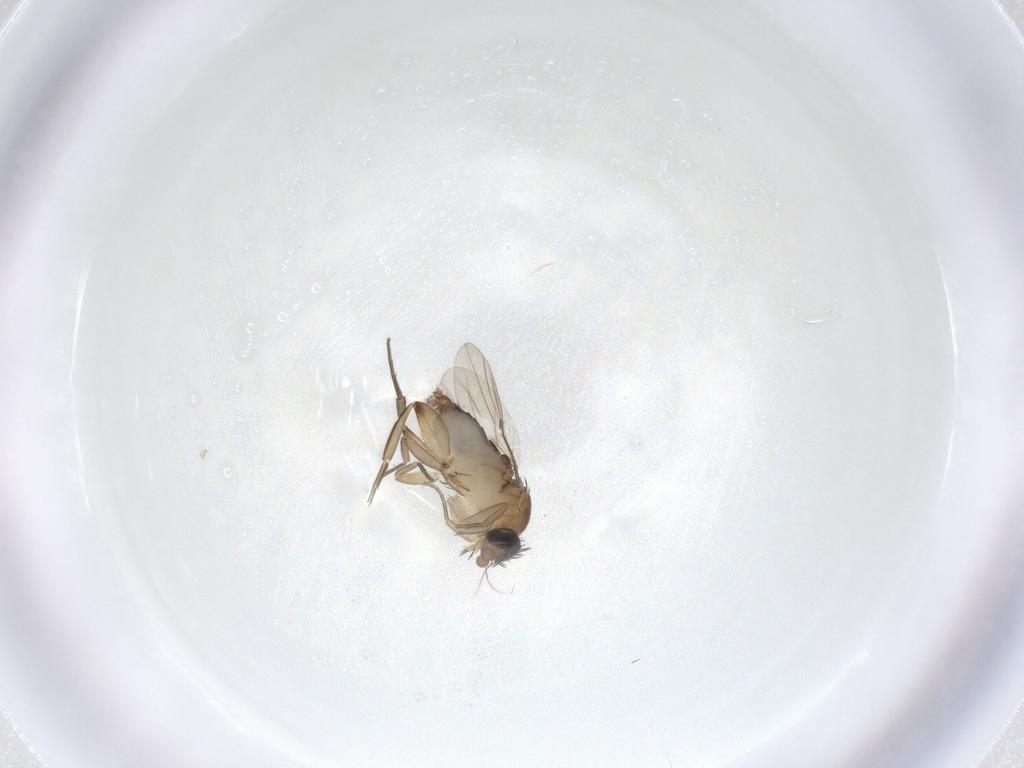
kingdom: Animalia
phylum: Arthropoda
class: Insecta
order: Diptera
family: Phoridae
